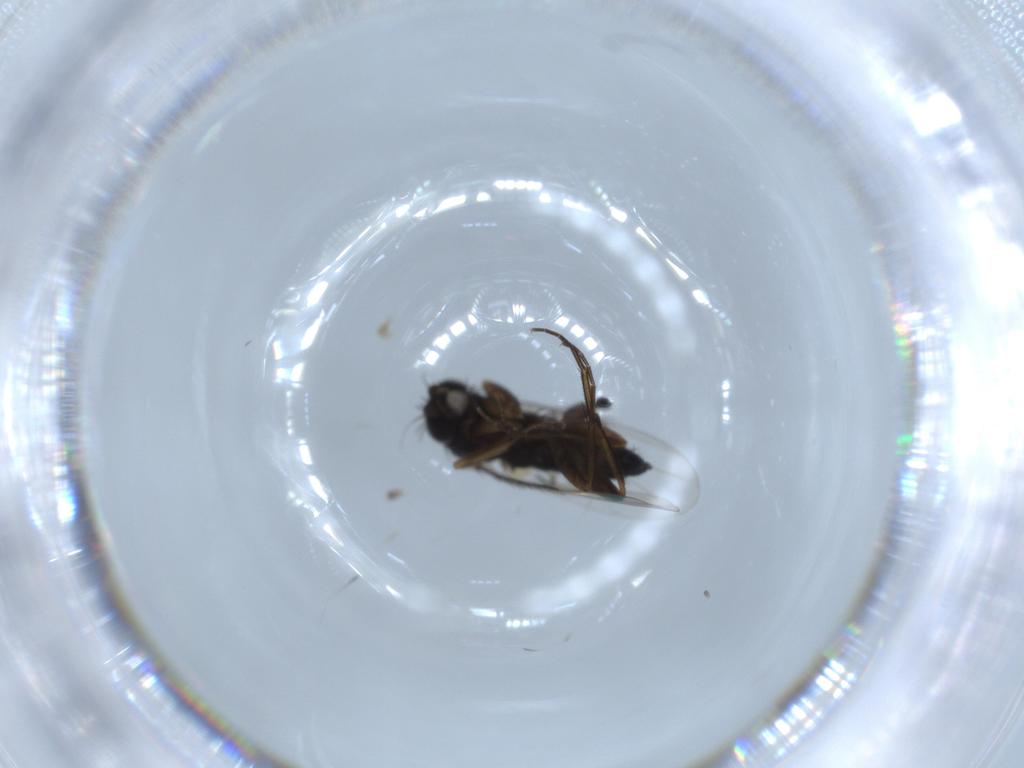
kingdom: Animalia
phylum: Arthropoda
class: Insecta
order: Diptera
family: Phoridae
